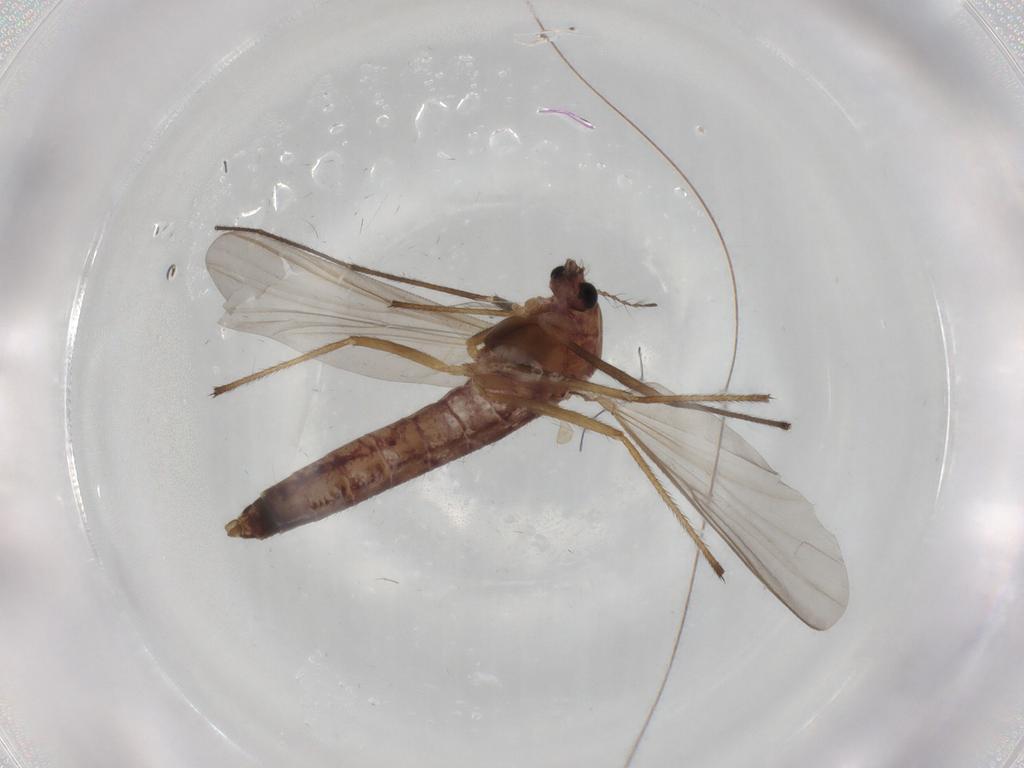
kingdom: Animalia
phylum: Arthropoda
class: Insecta
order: Diptera
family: Chironomidae
